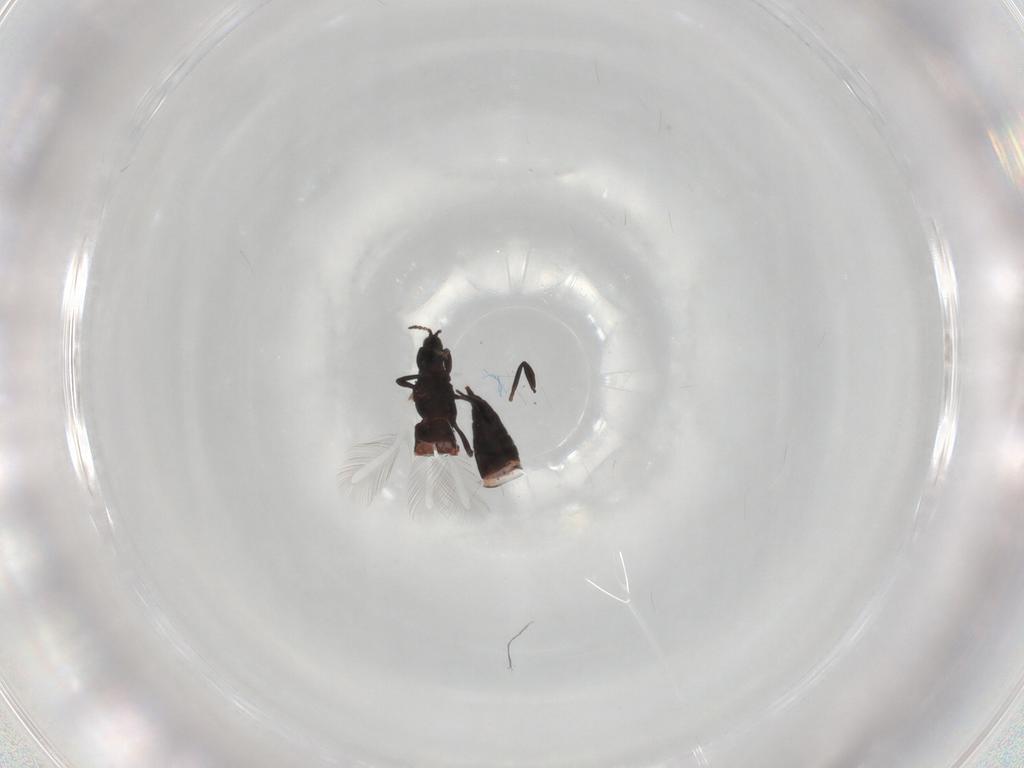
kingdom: Animalia
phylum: Arthropoda
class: Insecta
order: Thysanoptera
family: Phlaeothripidae
